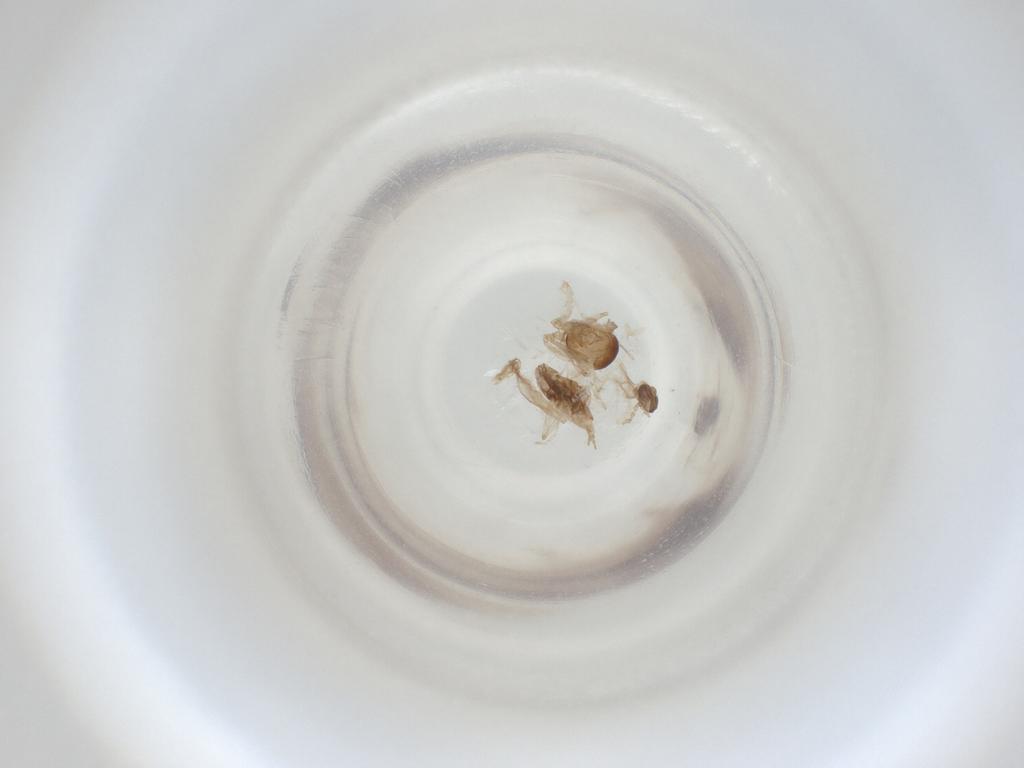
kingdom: Animalia
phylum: Arthropoda
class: Insecta
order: Diptera
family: Cecidomyiidae
